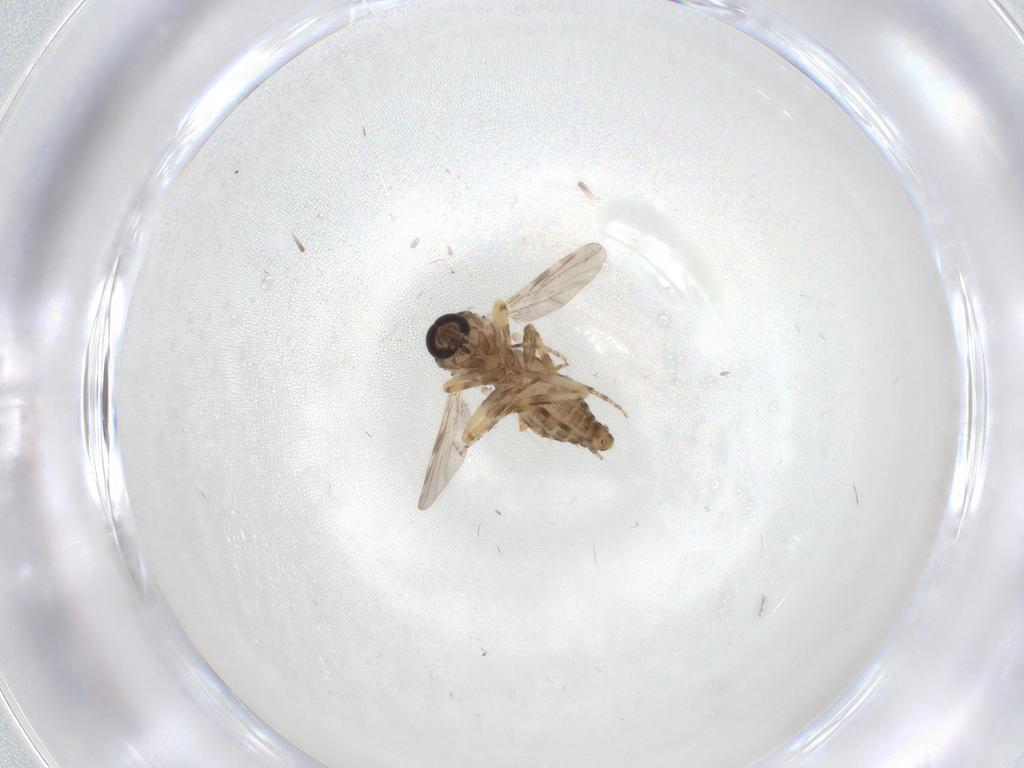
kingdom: Animalia
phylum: Arthropoda
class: Insecta
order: Diptera
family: Ceratopogonidae
